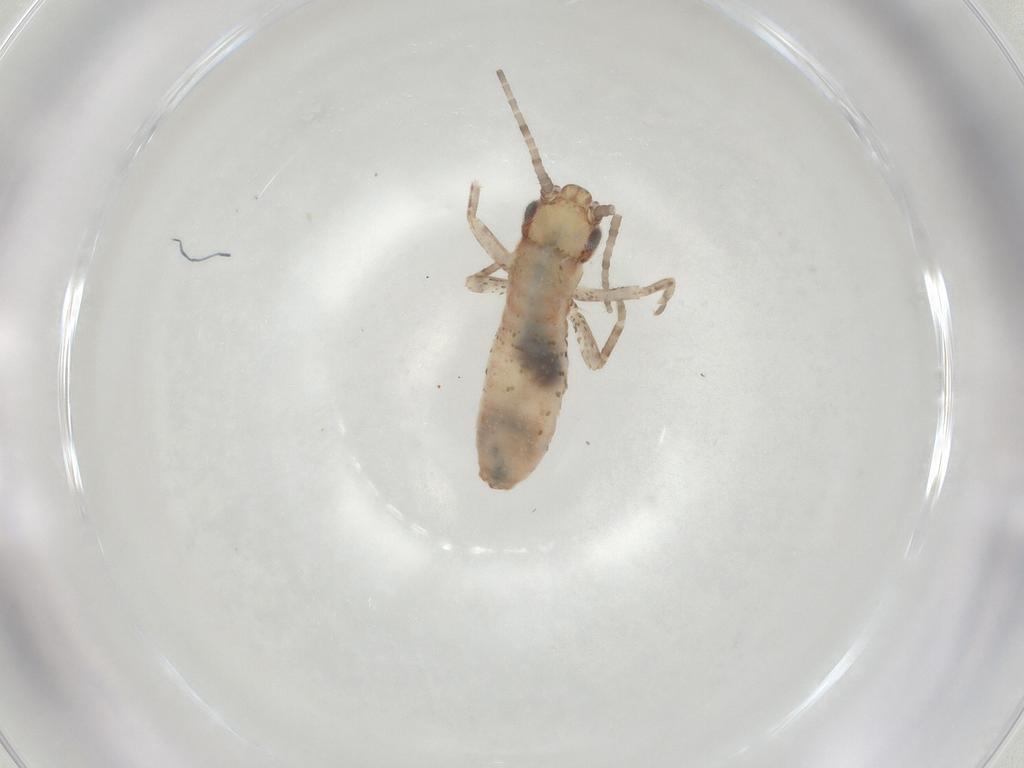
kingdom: Animalia
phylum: Arthropoda
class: Insecta
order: Orthoptera
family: Mogoplistidae
